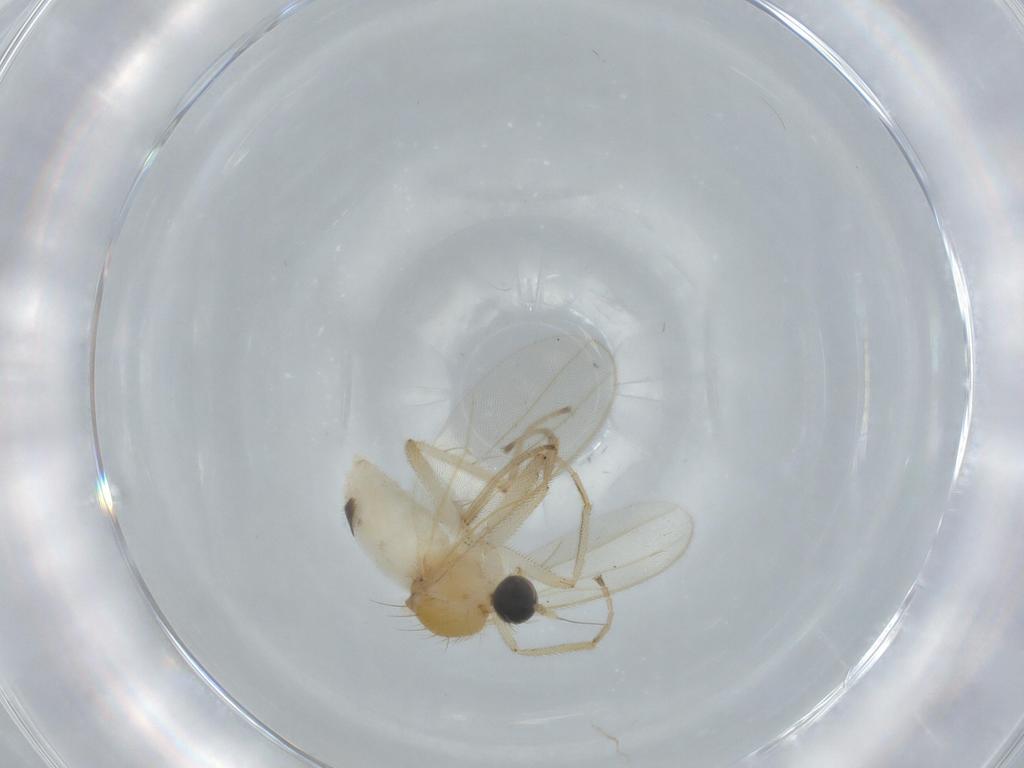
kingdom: Animalia
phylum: Arthropoda
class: Insecta
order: Diptera
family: Hybotidae
